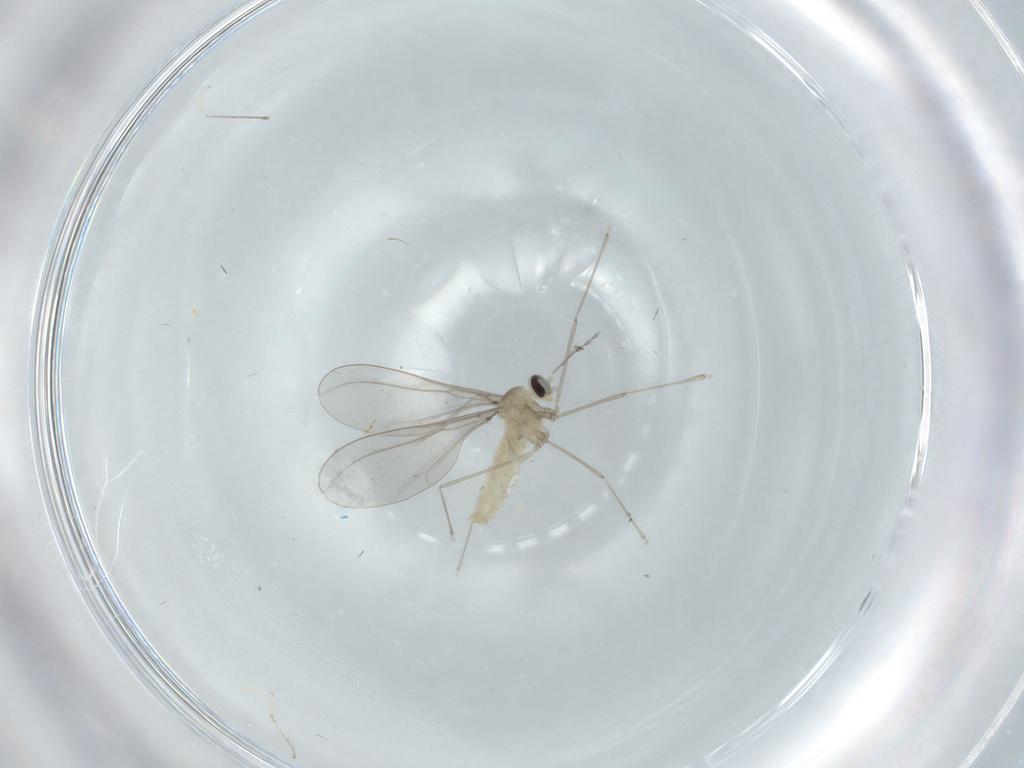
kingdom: Animalia
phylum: Arthropoda
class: Insecta
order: Diptera
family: Cecidomyiidae
